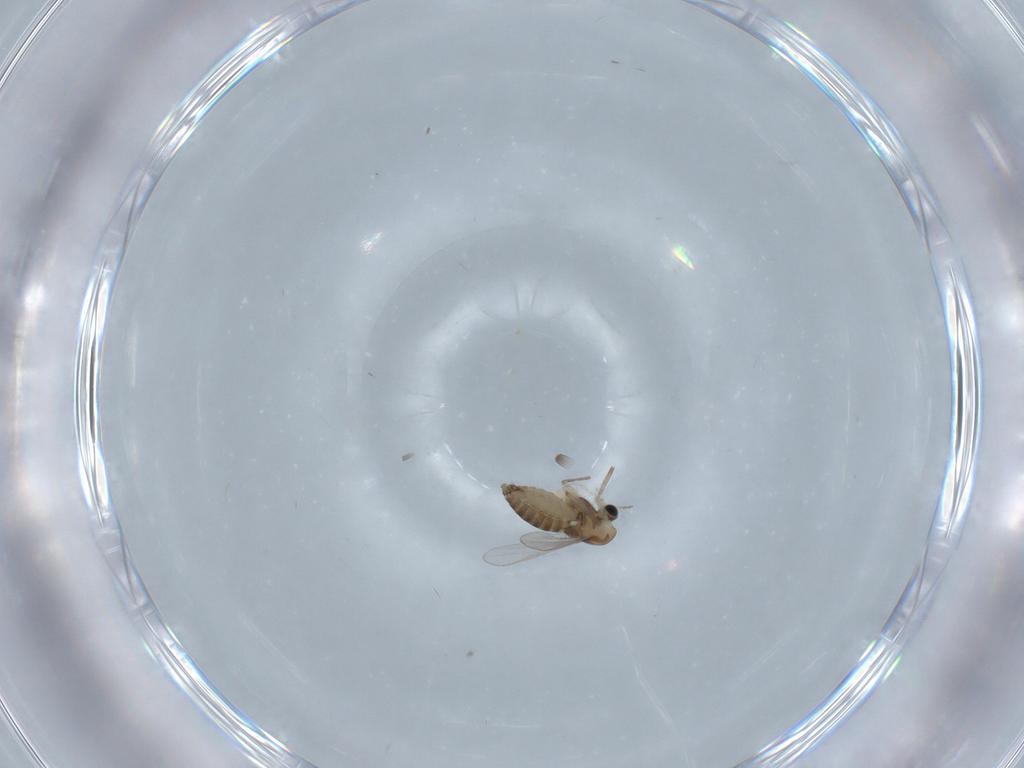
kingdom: Animalia
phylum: Arthropoda
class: Insecta
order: Diptera
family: Chironomidae
